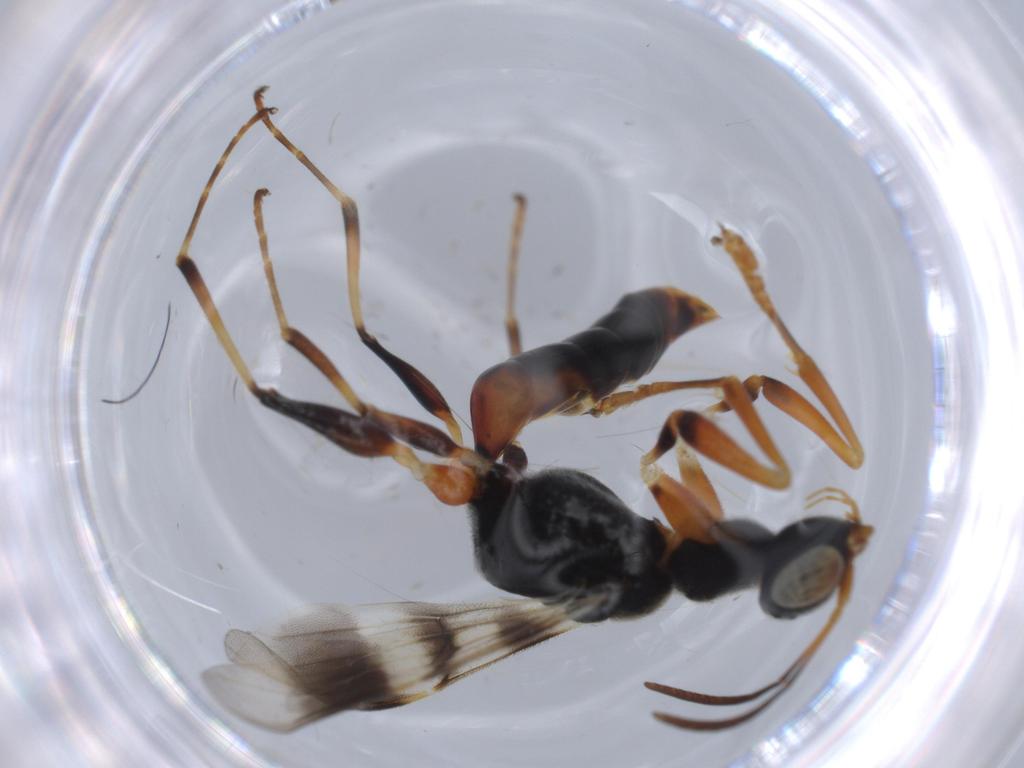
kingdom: Animalia
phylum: Arthropoda
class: Insecta
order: Hymenoptera
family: Dryinidae
